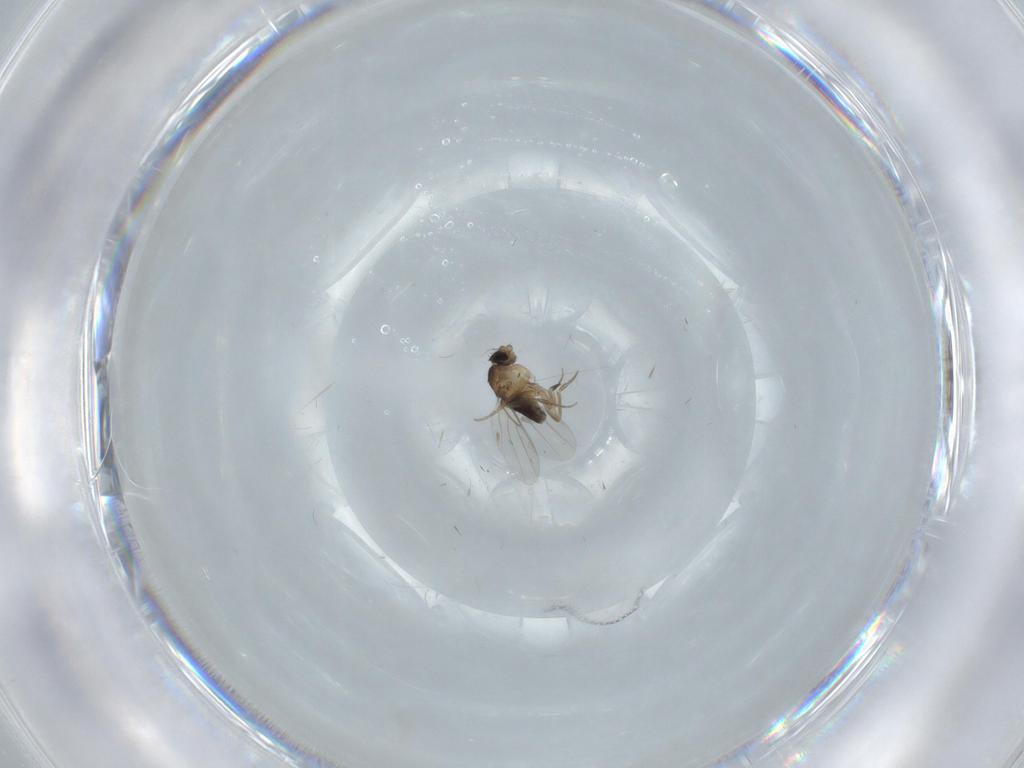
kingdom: Animalia
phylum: Arthropoda
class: Insecta
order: Diptera
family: Phoridae
